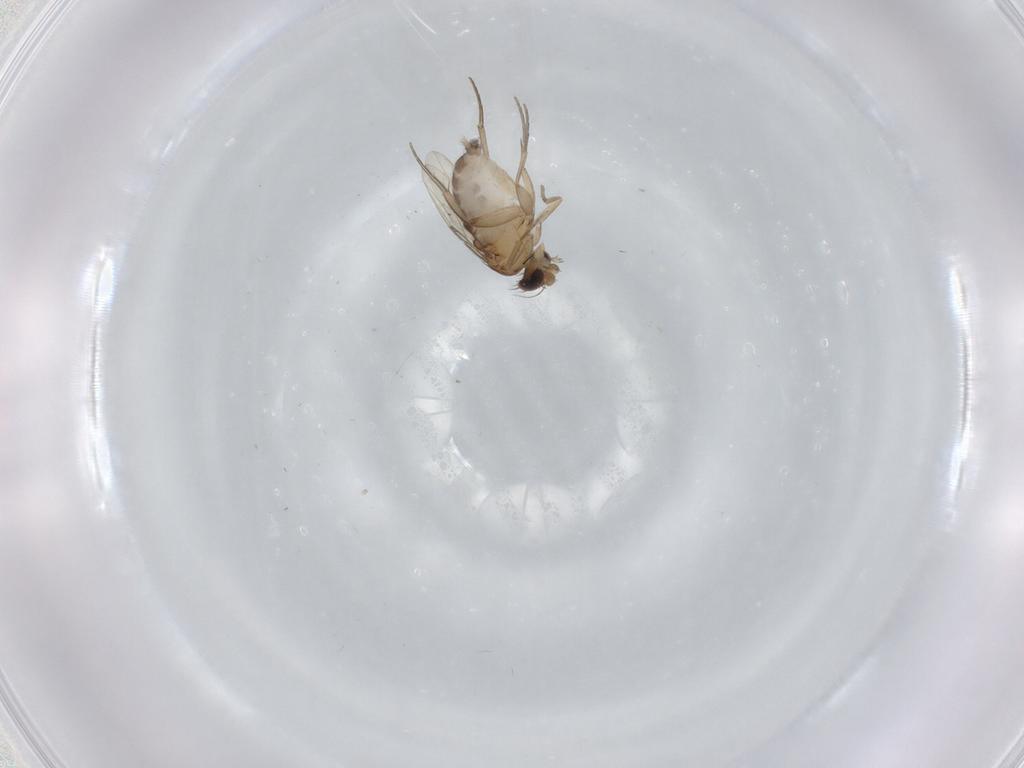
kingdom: Animalia
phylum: Arthropoda
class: Insecta
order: Diptera
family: Phoridae
